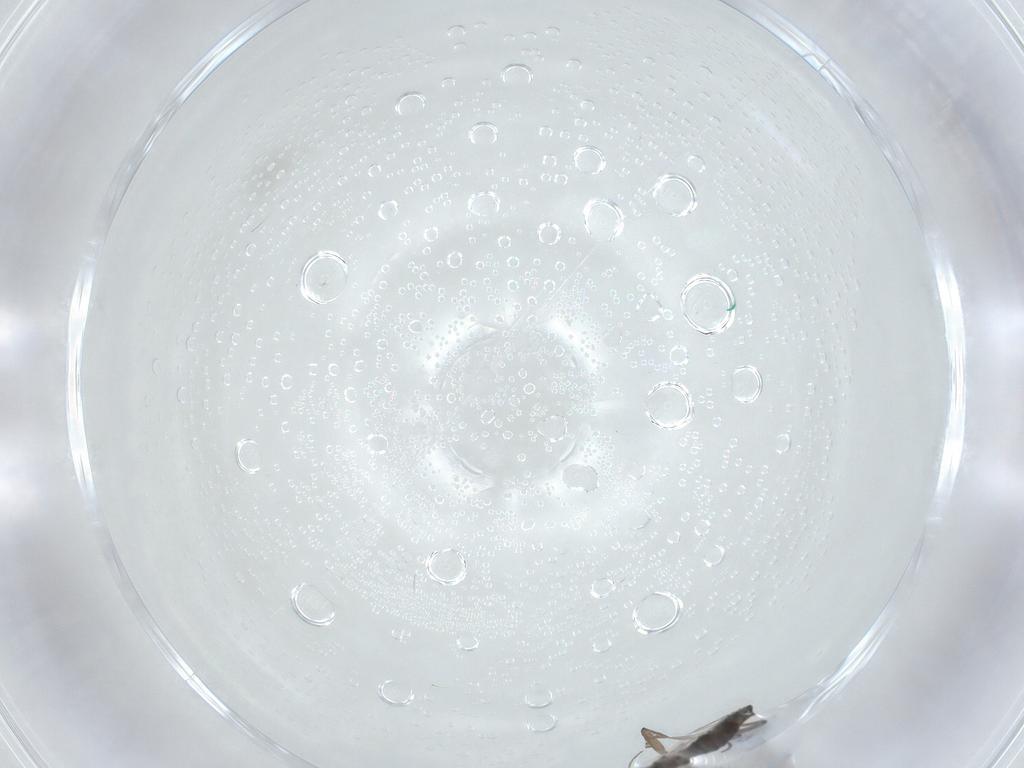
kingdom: Animalia
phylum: Arthropoda
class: Insecta
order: Diptera
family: Sciaridae
